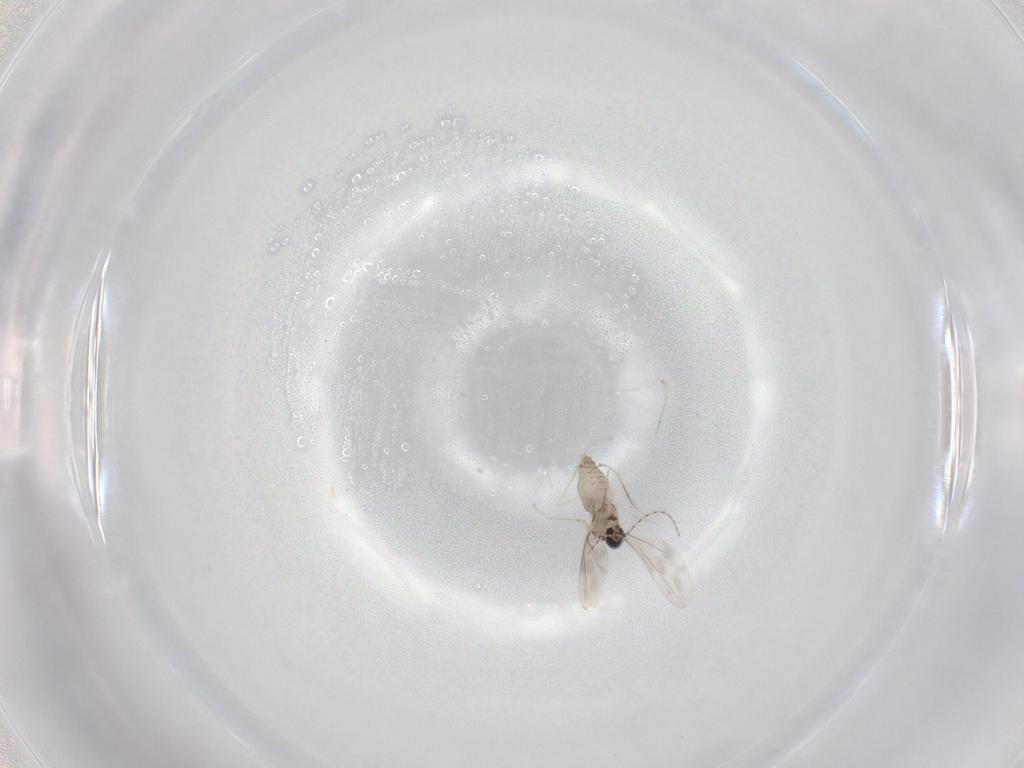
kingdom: Animalia
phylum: Arthropoda
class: Insecta
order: Diptera
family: Cecidomyiidae
